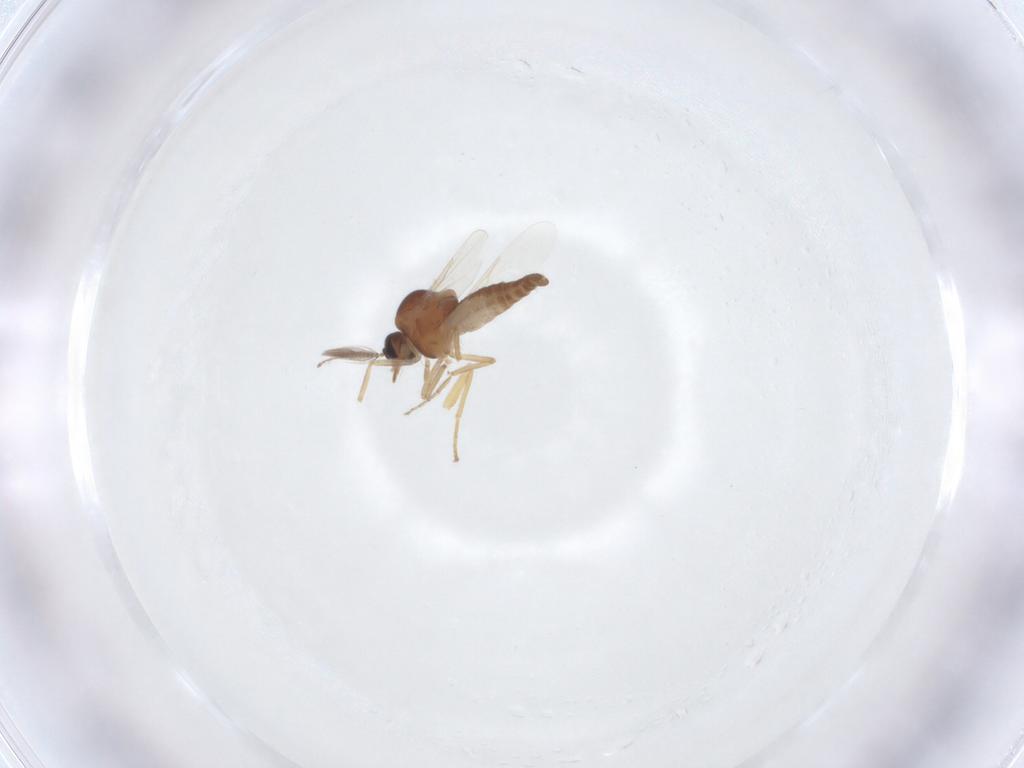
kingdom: Animalia
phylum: Arthropoda
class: Insecta
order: Diptera
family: Ceratopogonidae
